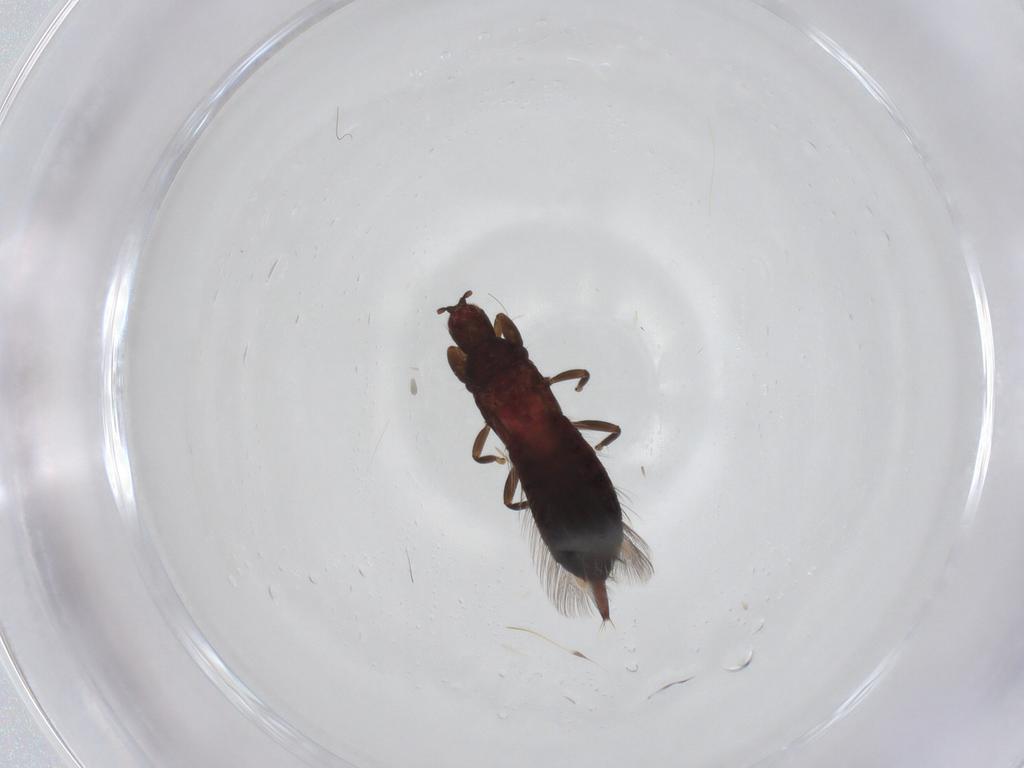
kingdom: Animalia
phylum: Arthropoda
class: Insecta
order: Thysanoptera
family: Phlaeothripidae
